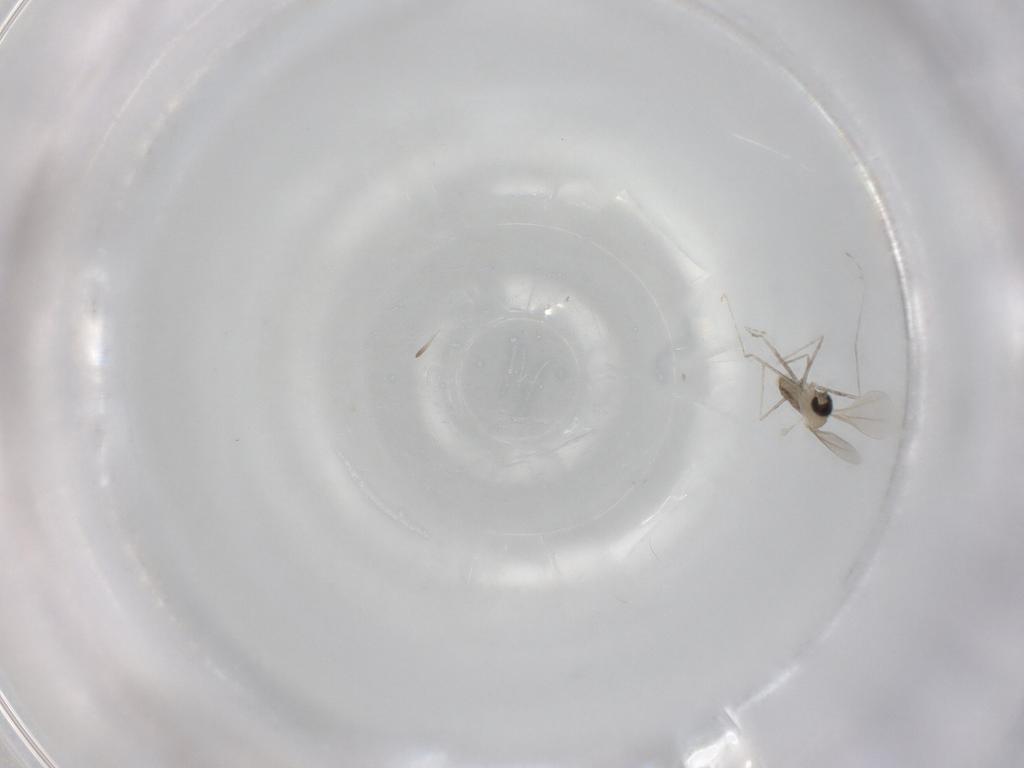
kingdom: Animalia
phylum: Arthropoda
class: Insecta
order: Diptera
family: Cecidomyiidae
